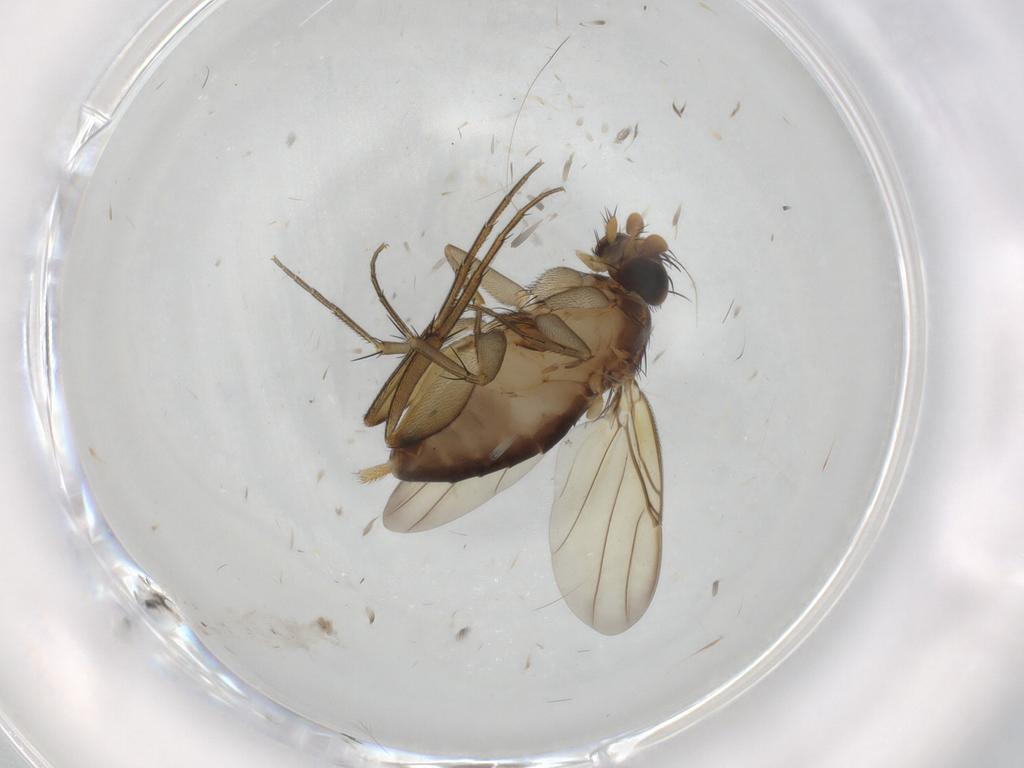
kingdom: Animalia
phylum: Arthropoda
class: Insecta
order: Diptera
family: Phoridae
